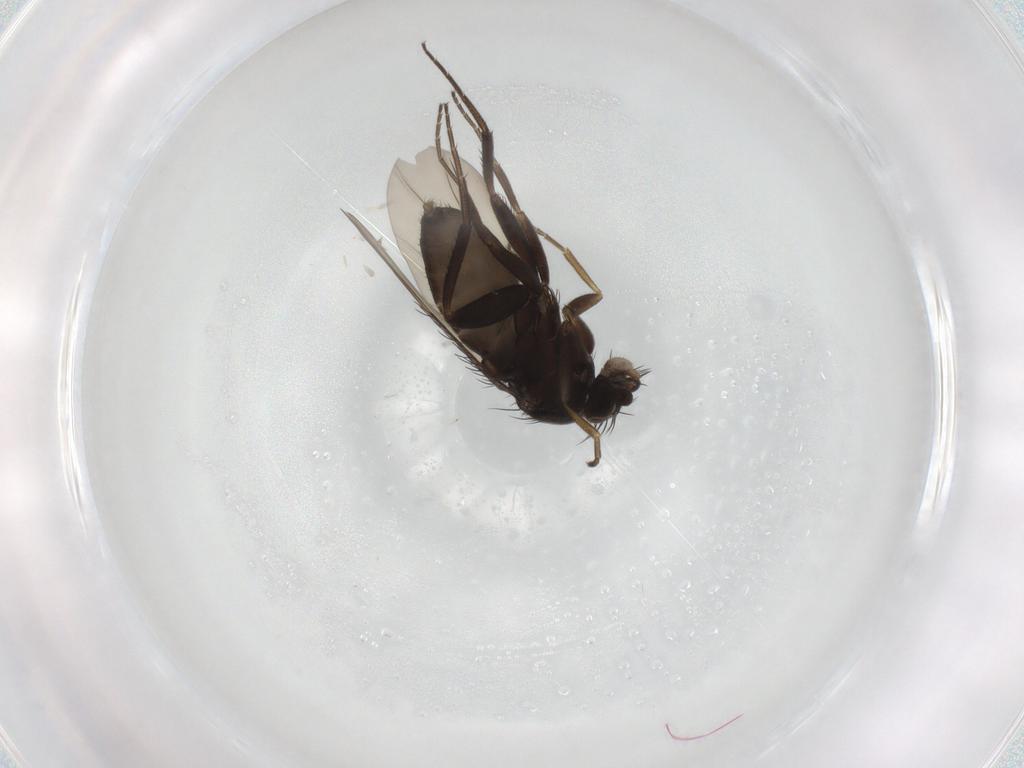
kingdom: Animalia
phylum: Arthropoda
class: Insecta
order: Diptera
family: Phoridae
